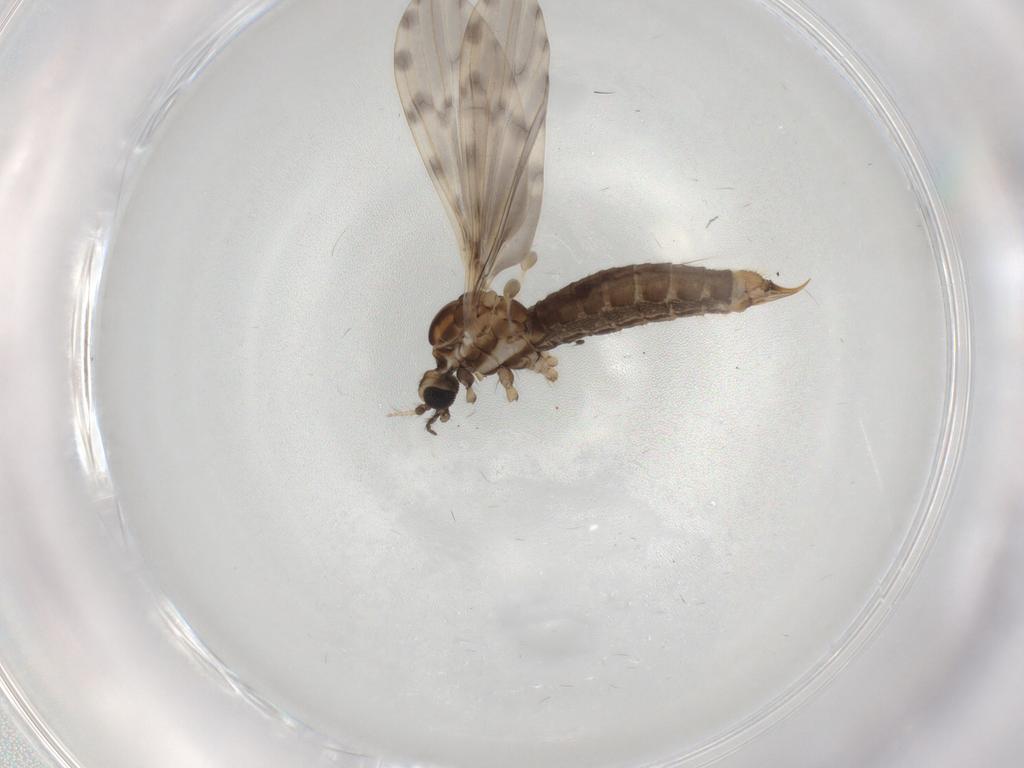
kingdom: Animalia
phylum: Arthropoda
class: Insecta
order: Diptera
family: Limoniidae
